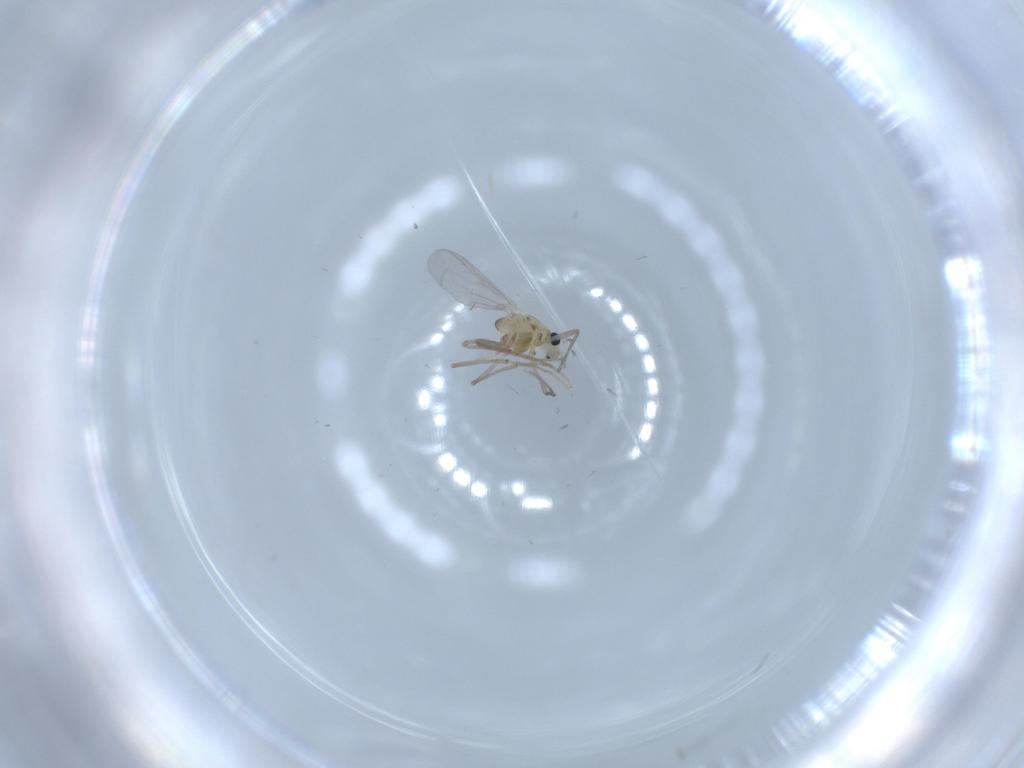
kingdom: Animalia
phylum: Arthropoda
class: Insecta
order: Diptera
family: Chironomidae
